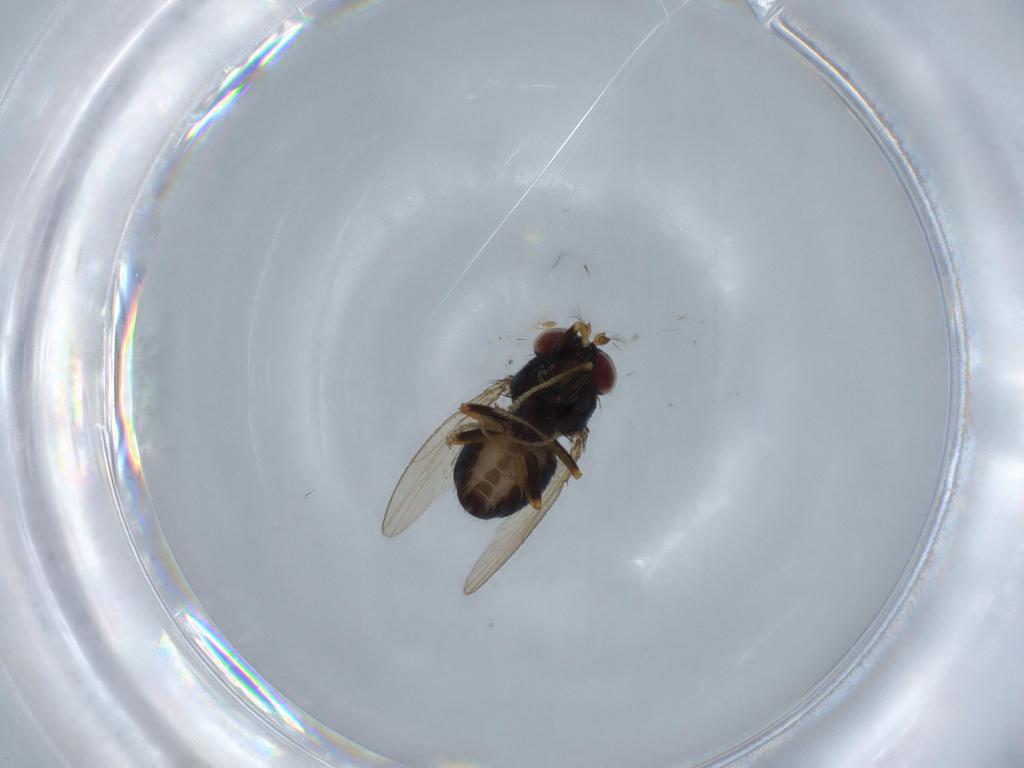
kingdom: Animalia
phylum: Arthropoda
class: Insecta
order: Diptera
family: Ephydridae
